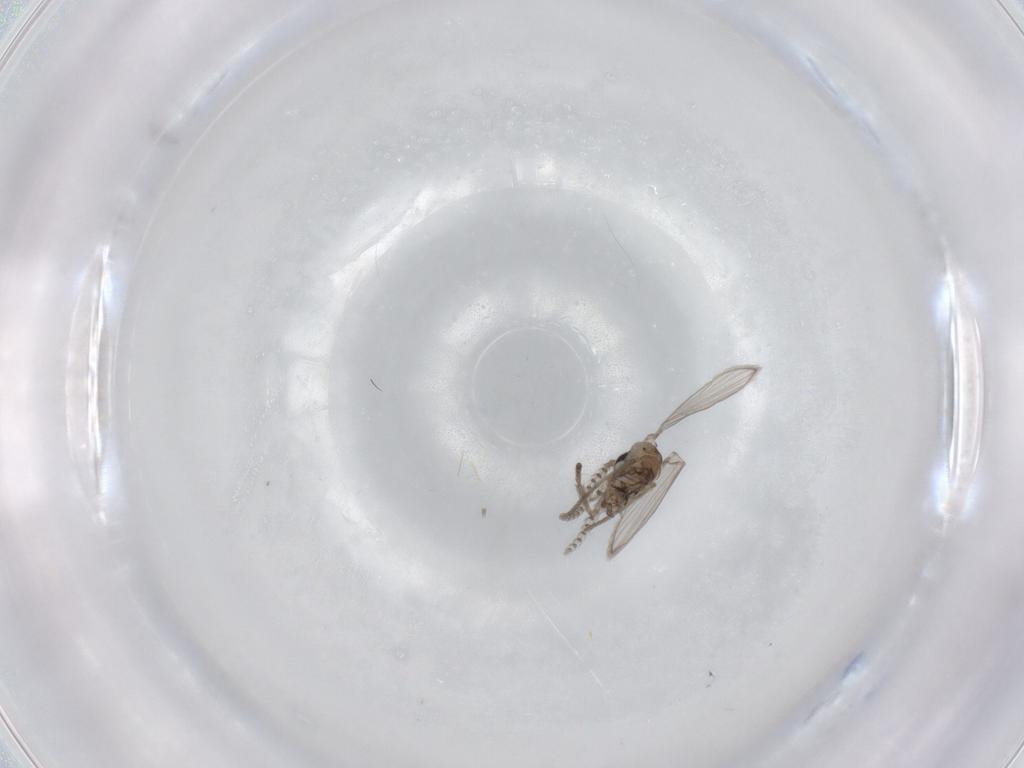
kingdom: Animalia
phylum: Arthropoda
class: Insecta
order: Diptera
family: Psychodidae
